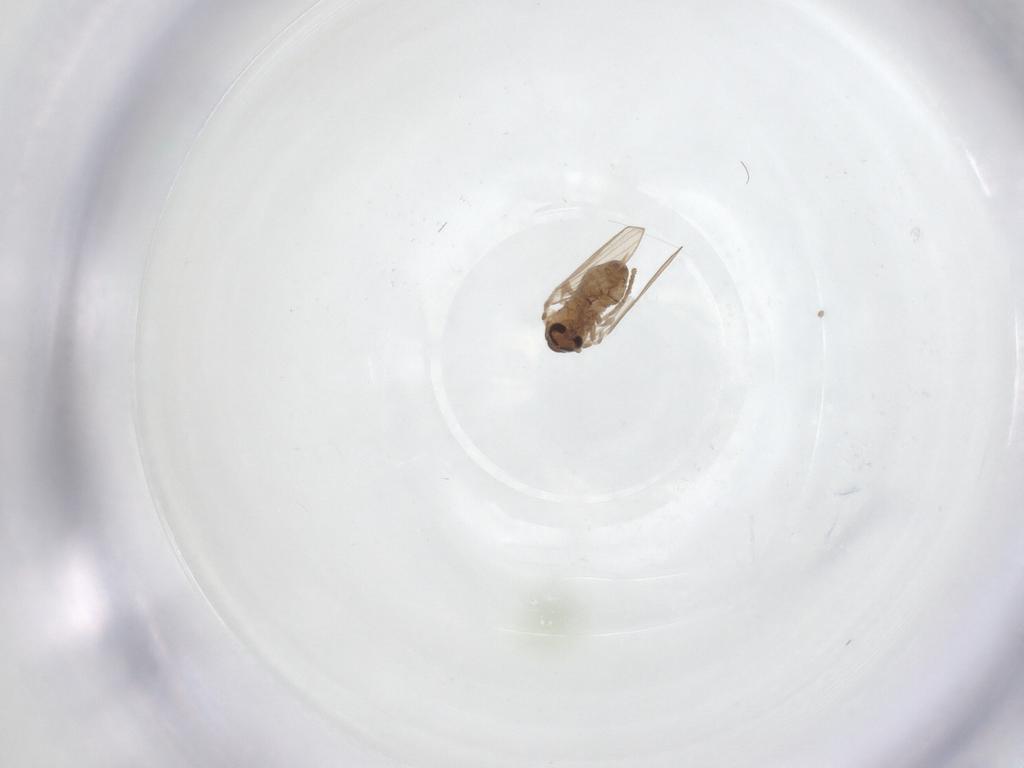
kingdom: Animalia
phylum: Arthropoda
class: Insecta
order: Diptera
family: Psychodidae
